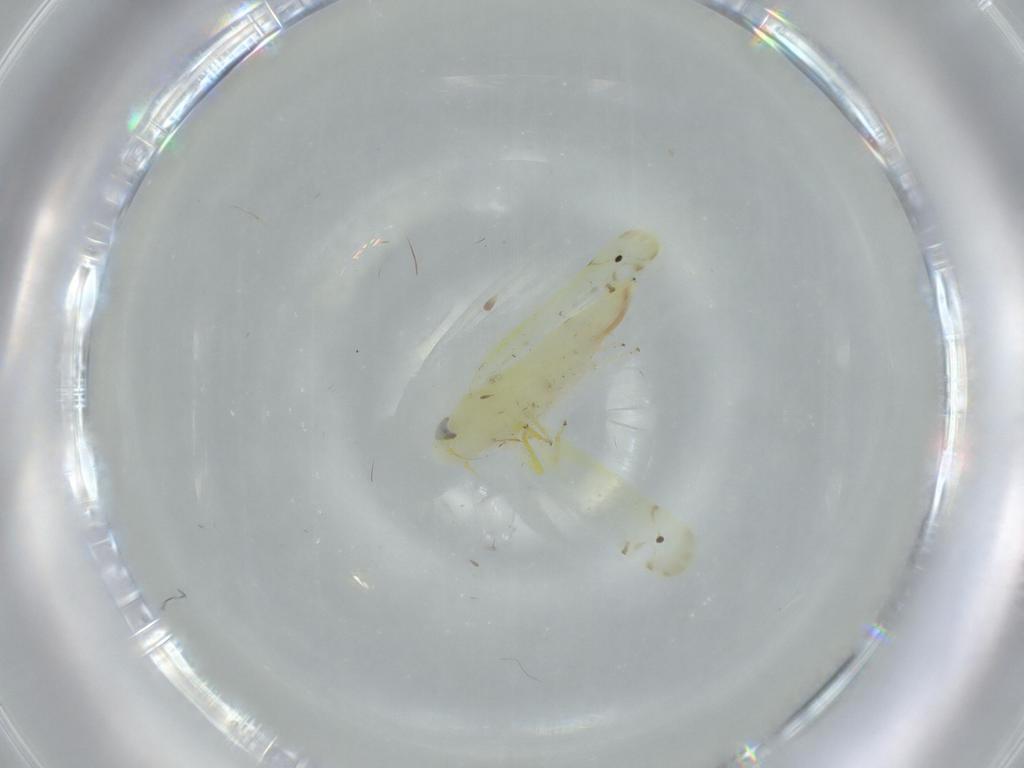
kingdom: Animalia
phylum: Arthropoda
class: Insecta
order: Hemiptera
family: Cicadellidae
